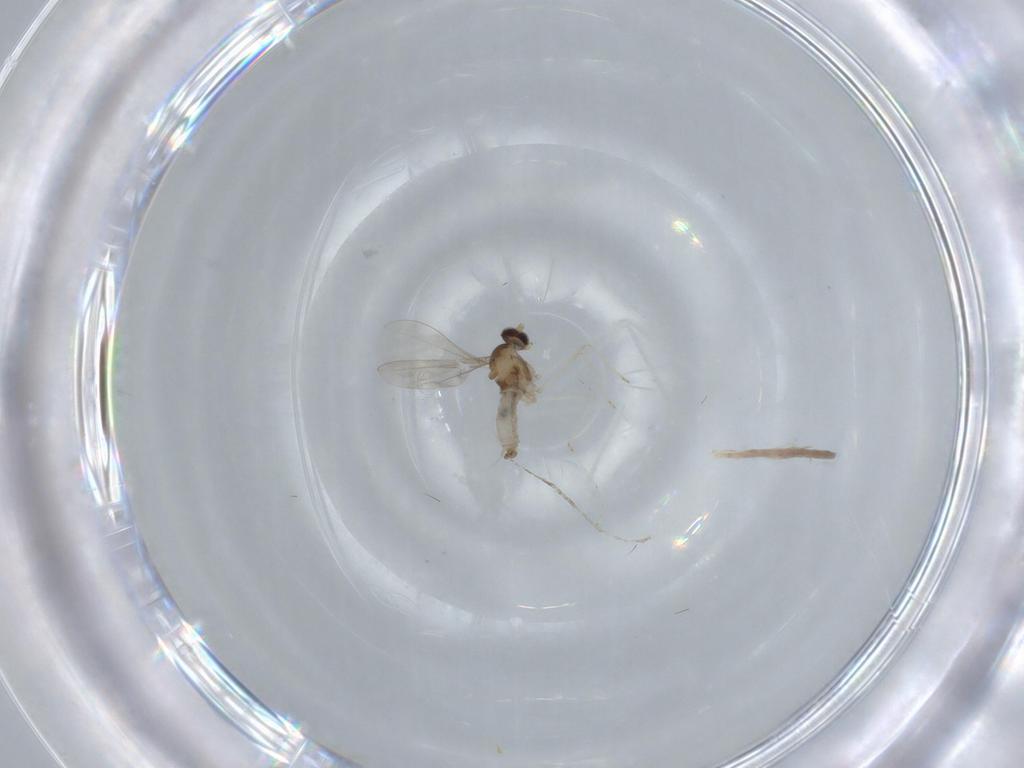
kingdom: Animalia
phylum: Arthropoda
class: Insecta
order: Diptera
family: Cecidomyiidae
